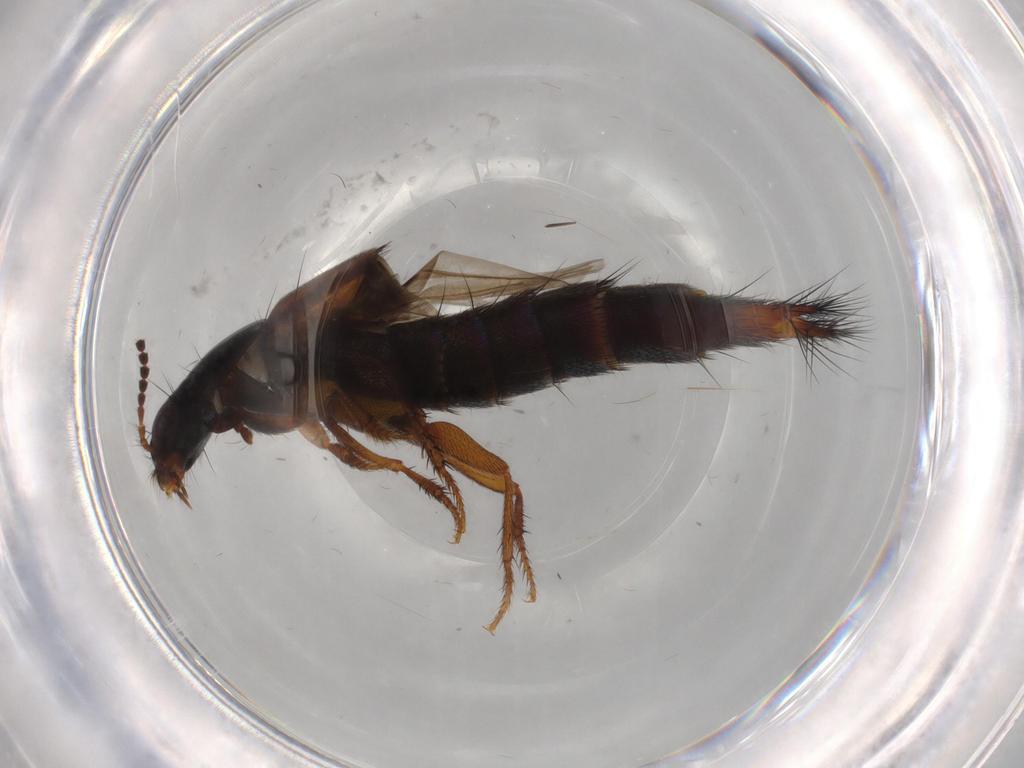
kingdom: Animalia
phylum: Arthropoda
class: Insecta
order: Coleoptera
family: Staphylinidae
